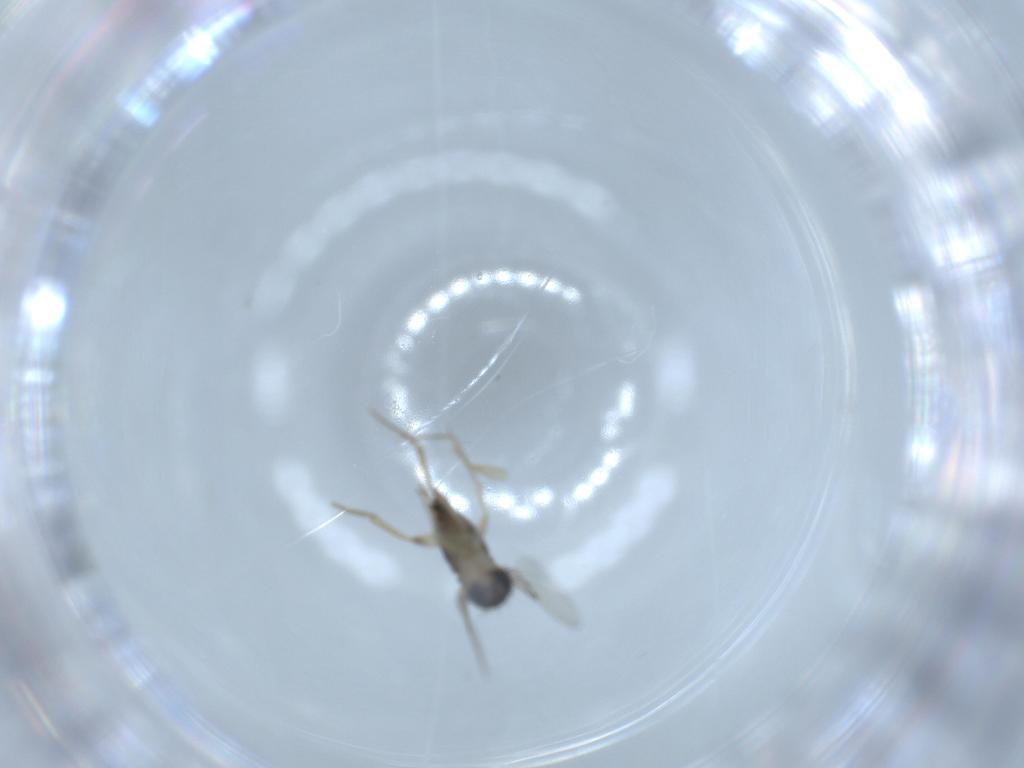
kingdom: Animalia
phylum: Arthropoda
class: Insecta
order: Diptera
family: Phoridae
